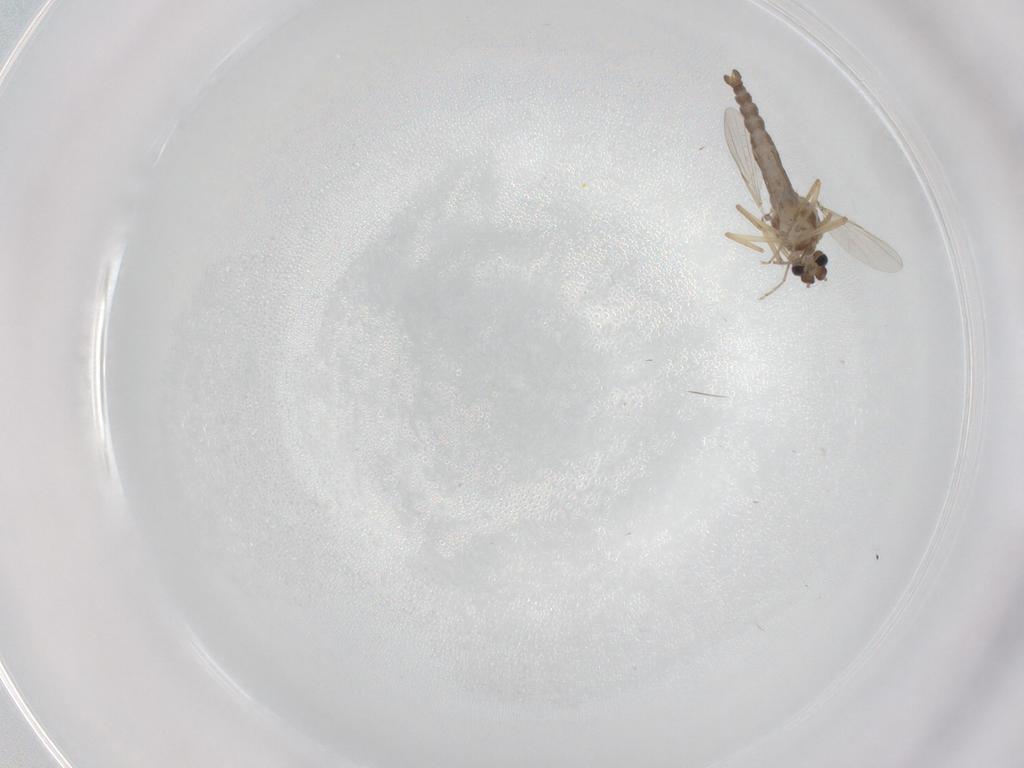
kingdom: Animalia
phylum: Arthropoda
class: Insecta
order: Diptera
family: Ceratopogonidae
